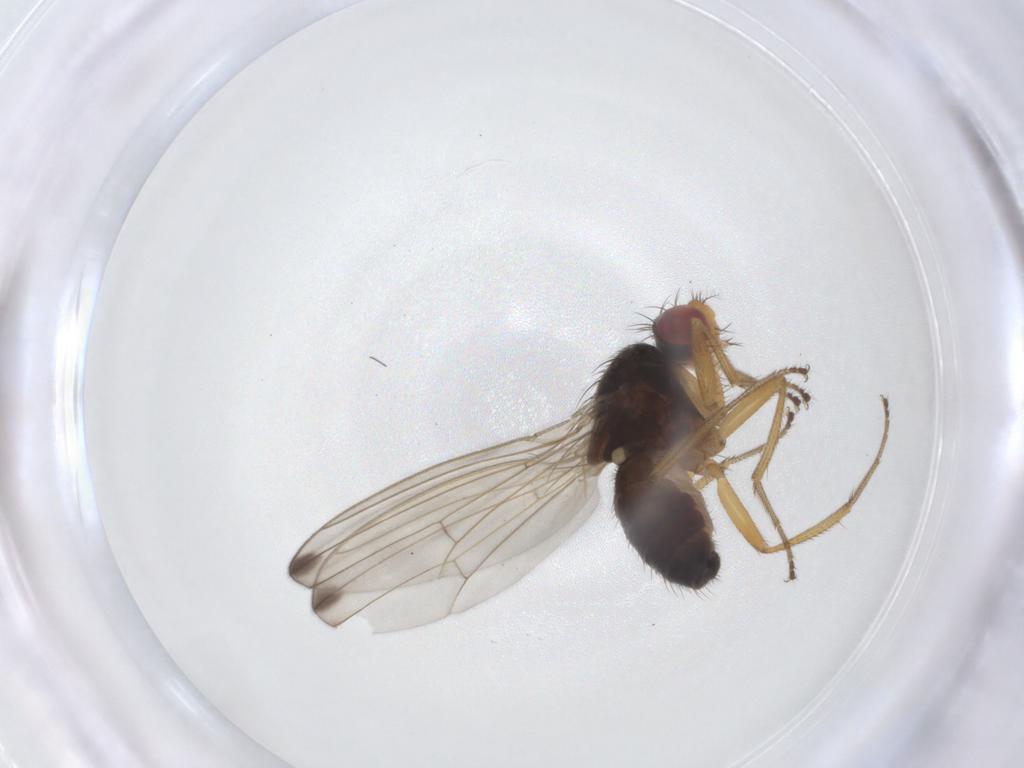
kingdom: Animalia
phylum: Arthropoda
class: Insecta
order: Diptera
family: Drosophilidae
